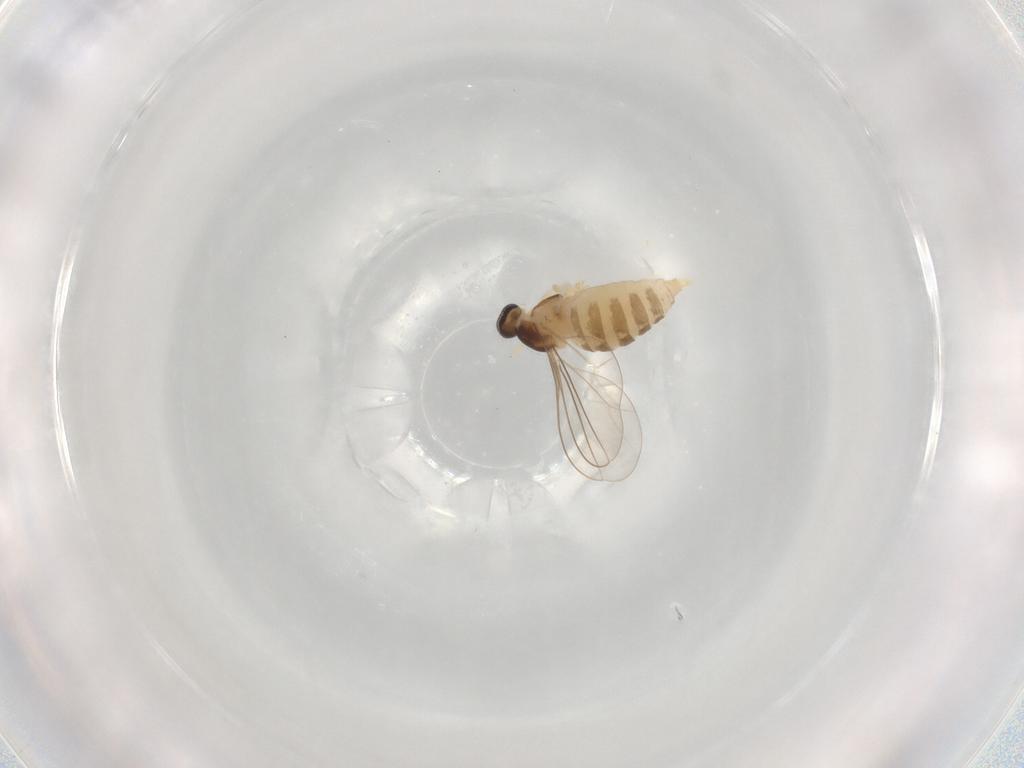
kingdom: Animalia
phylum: Arthropoda
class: Insecta
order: Diptera
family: Cecidomyiidae
